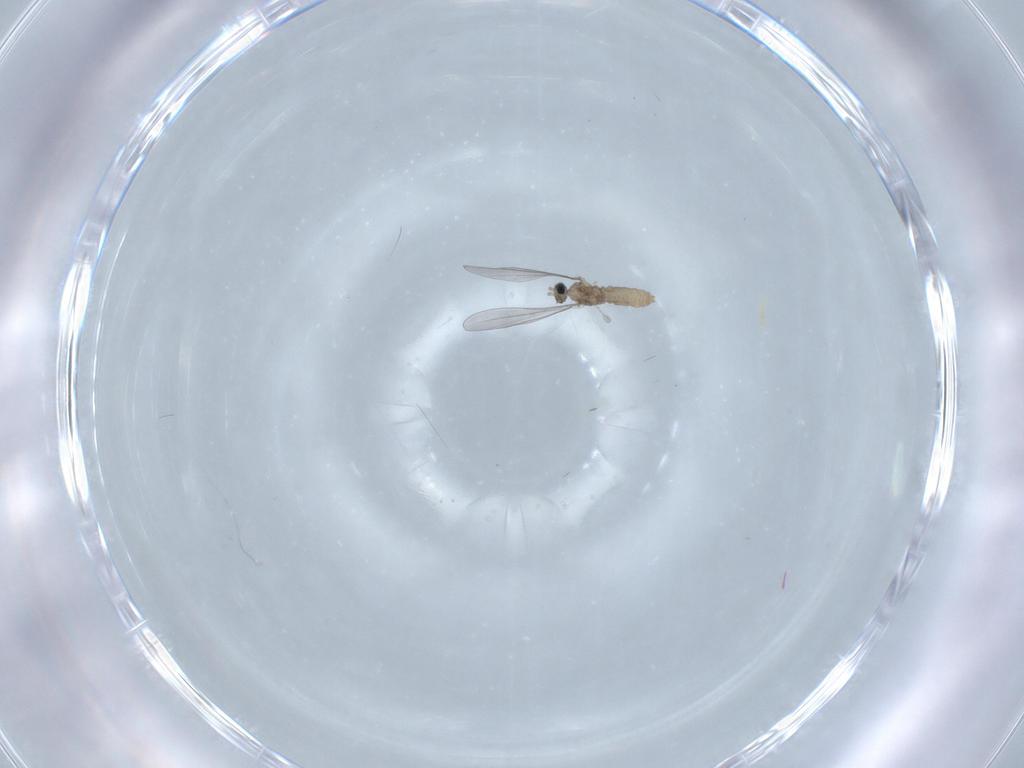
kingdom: Animalia
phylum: Arthropoda
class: Insecta
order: Diptera
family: Cecidomyiidae
